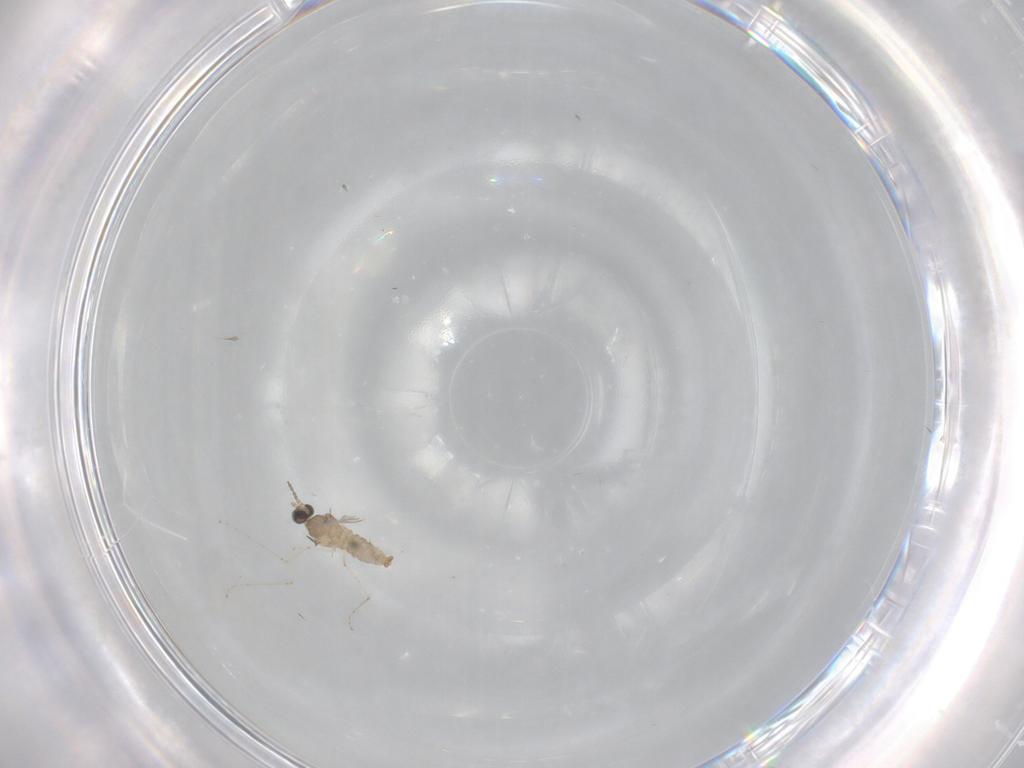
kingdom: Animalia
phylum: Arthropoda
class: Insecta
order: Diptera
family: Cecidomyiidae
